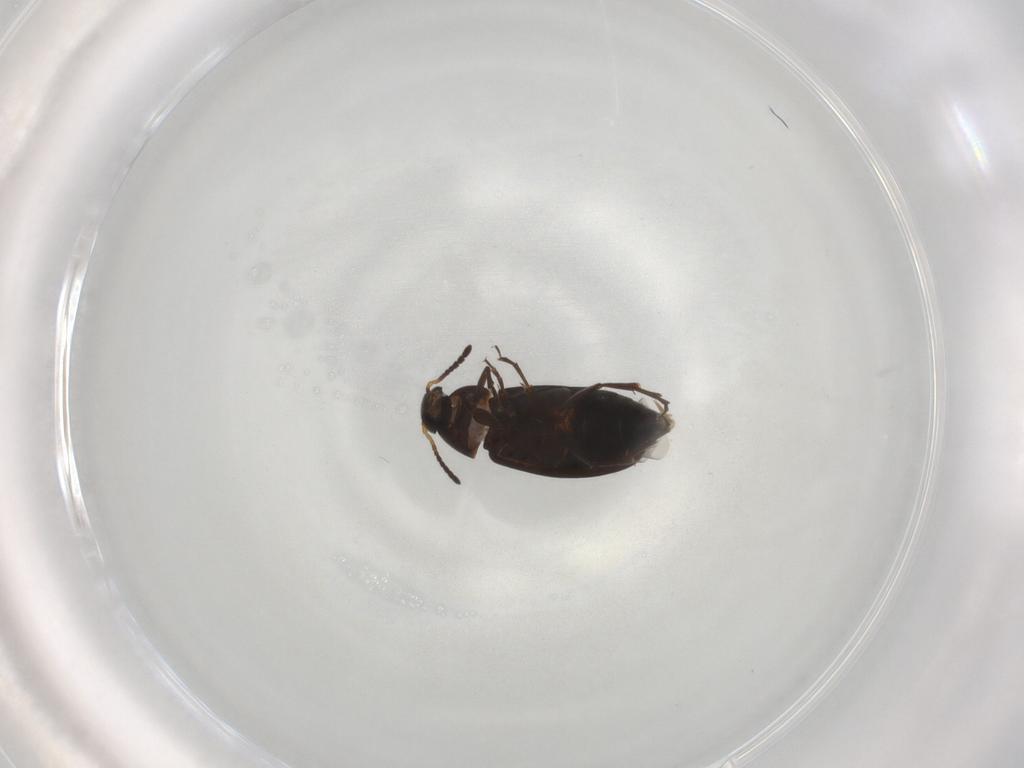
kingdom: Animalia
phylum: Arthropoda
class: Insecta
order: Coleoptera
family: Scraptiidae
